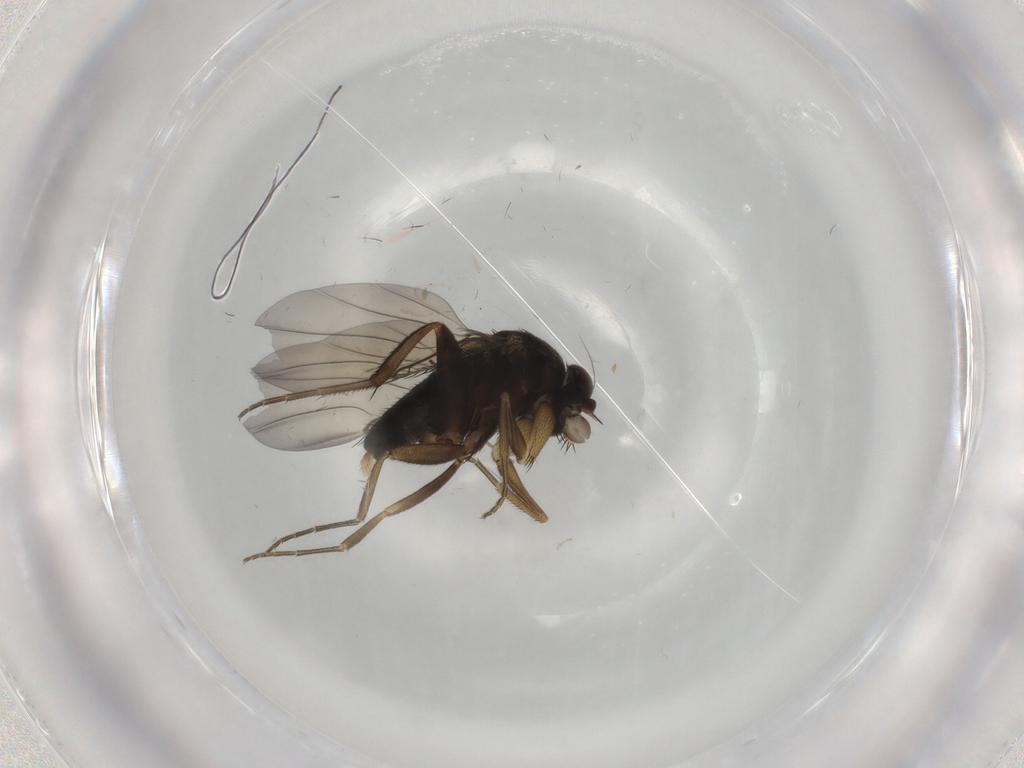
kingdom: Animalia
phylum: Arthropoda
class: Insecta
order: Diptera
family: Phoridae
